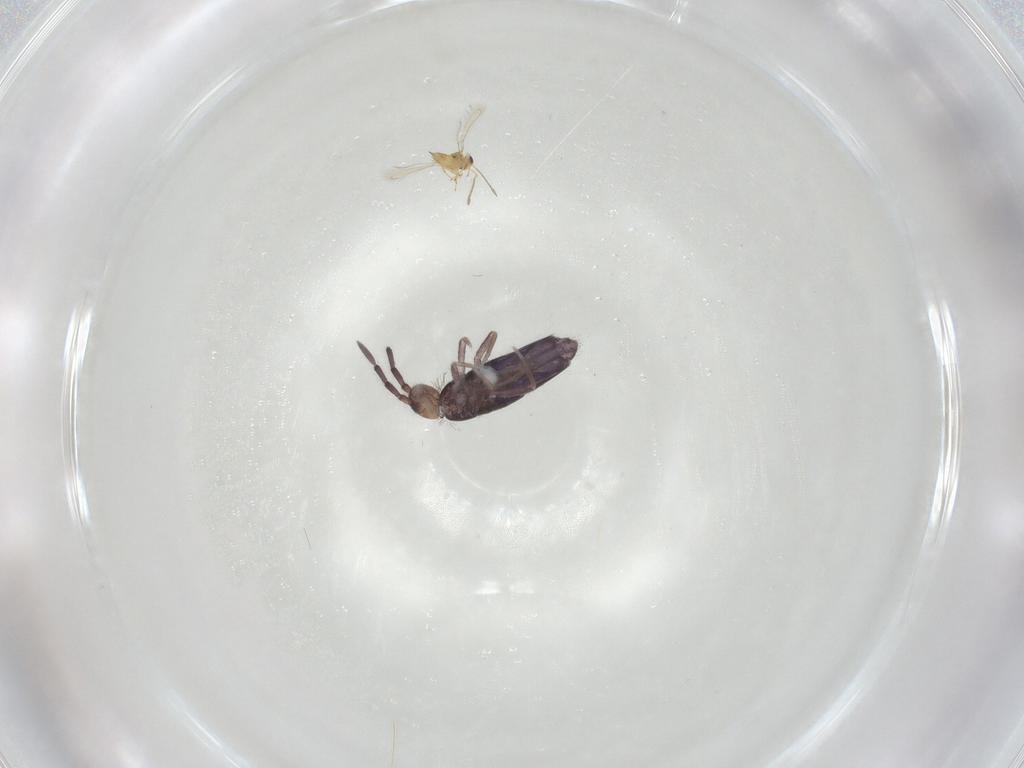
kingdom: Animalia
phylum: Arthropoda
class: Collembola
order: Entomobryomorpha
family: Entomobryidae
